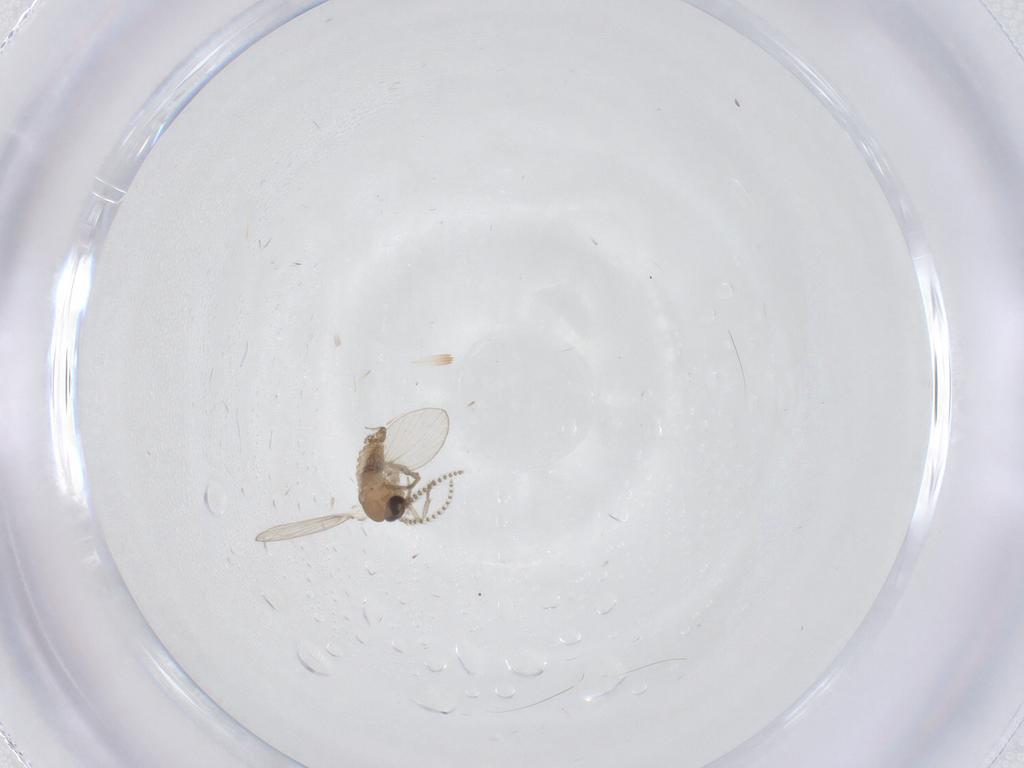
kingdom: Animalia
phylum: Arthropoda
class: Insecta
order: Diptera
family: Psychodidae
